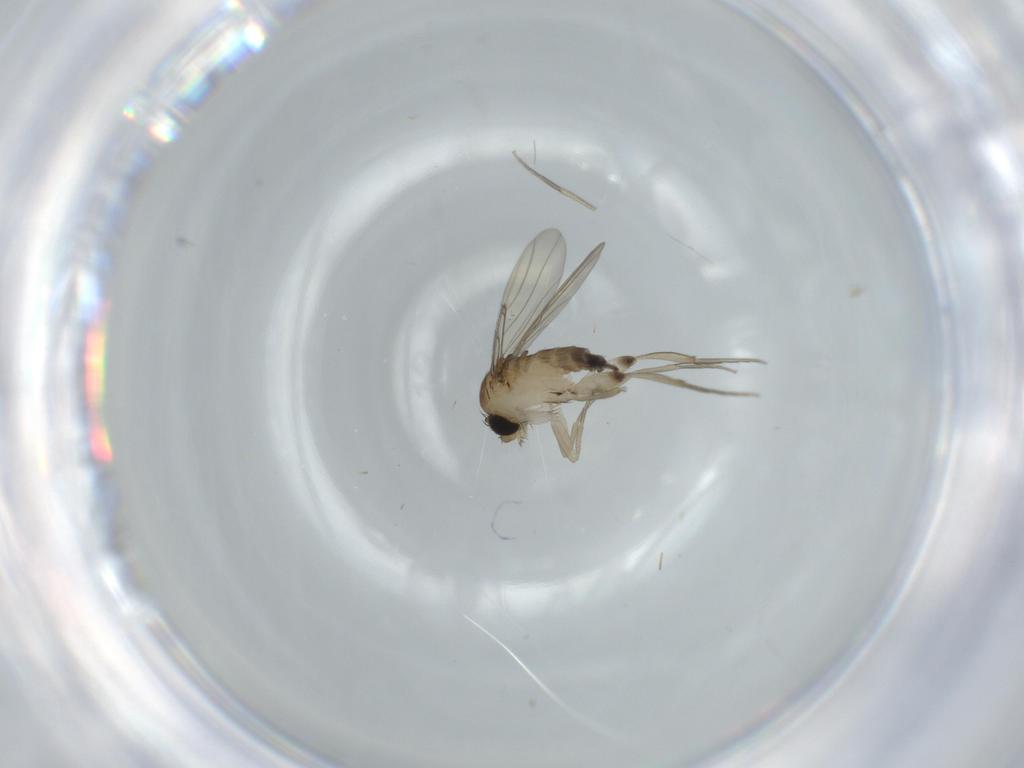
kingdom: Animalia
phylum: Arthropoda
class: Insecta
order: Diptera
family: Phoridae
